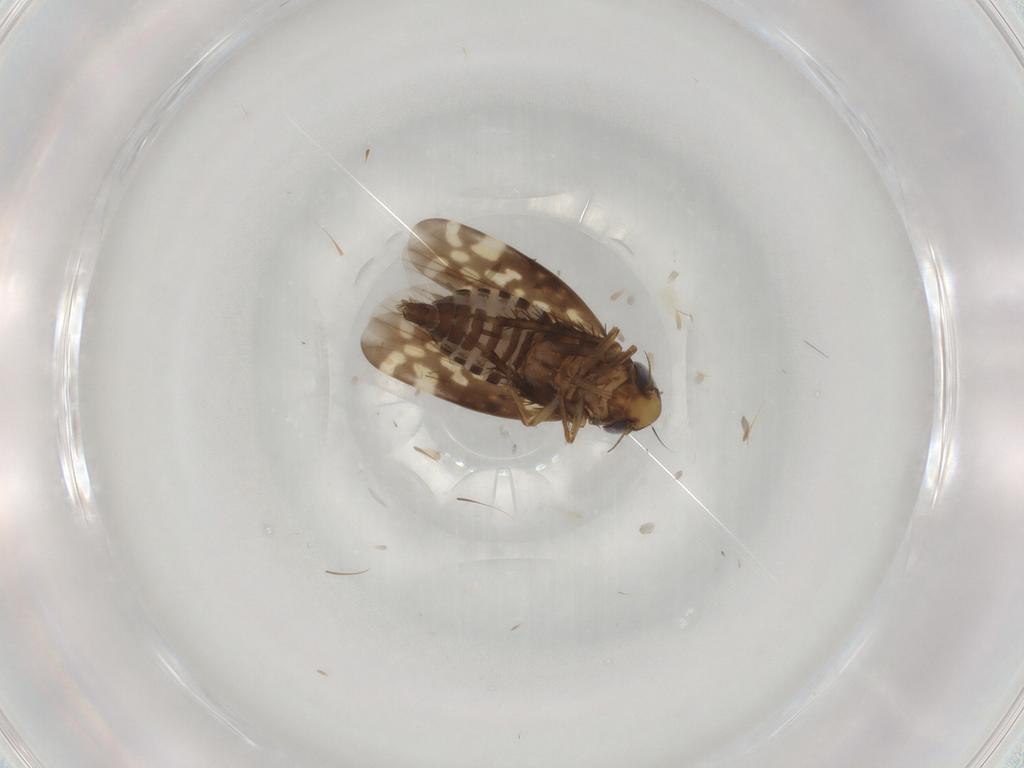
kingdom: Animalia
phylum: Arthropoda
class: Insecta
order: Hemiptera
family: Cicadellidae
